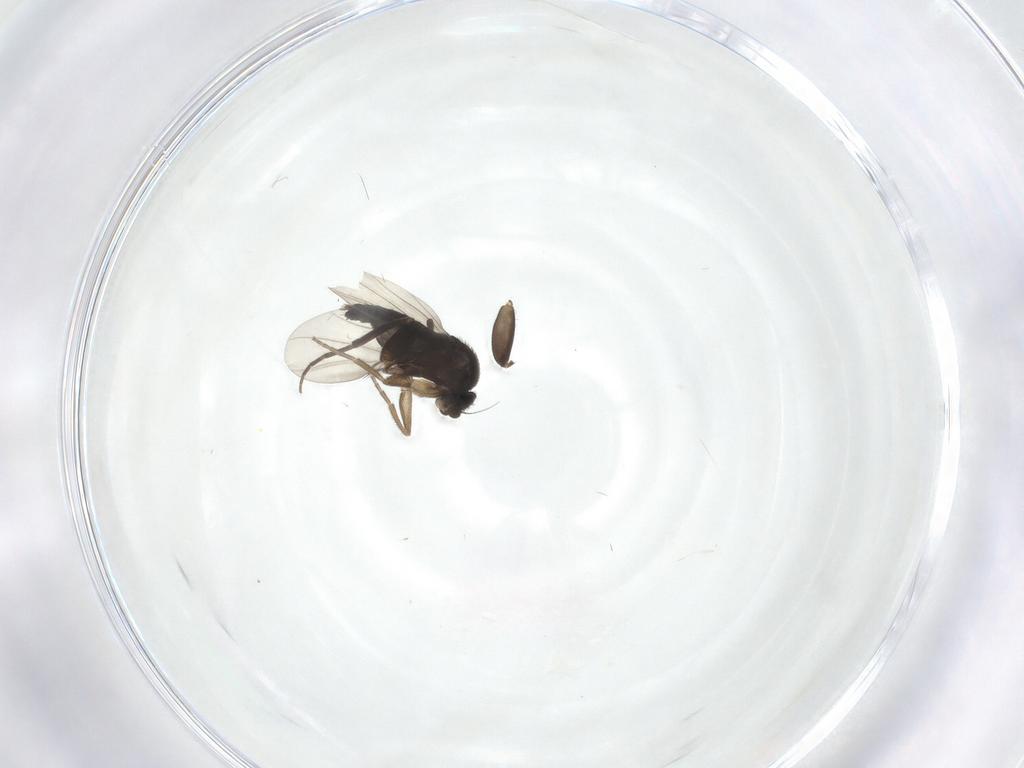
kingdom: Animalia
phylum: Arthropoda
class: Insecta
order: Diptera
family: Phoridae
